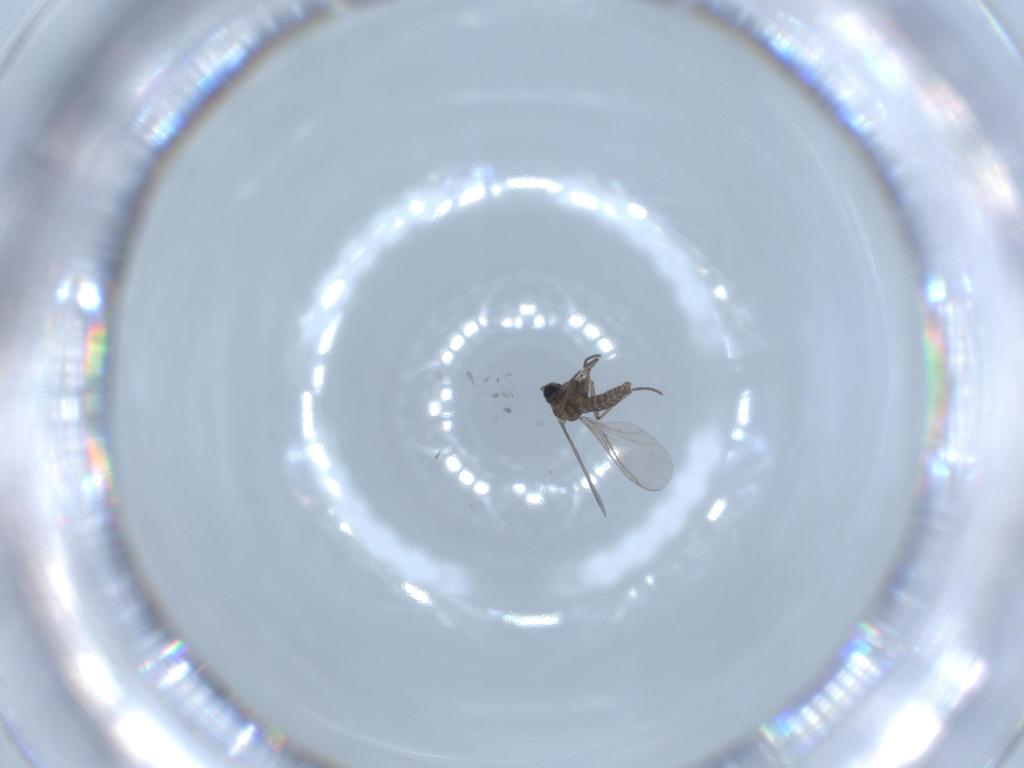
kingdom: Animalia
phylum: Arthropoda
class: Insecta
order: Diptera
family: Sciaridae
